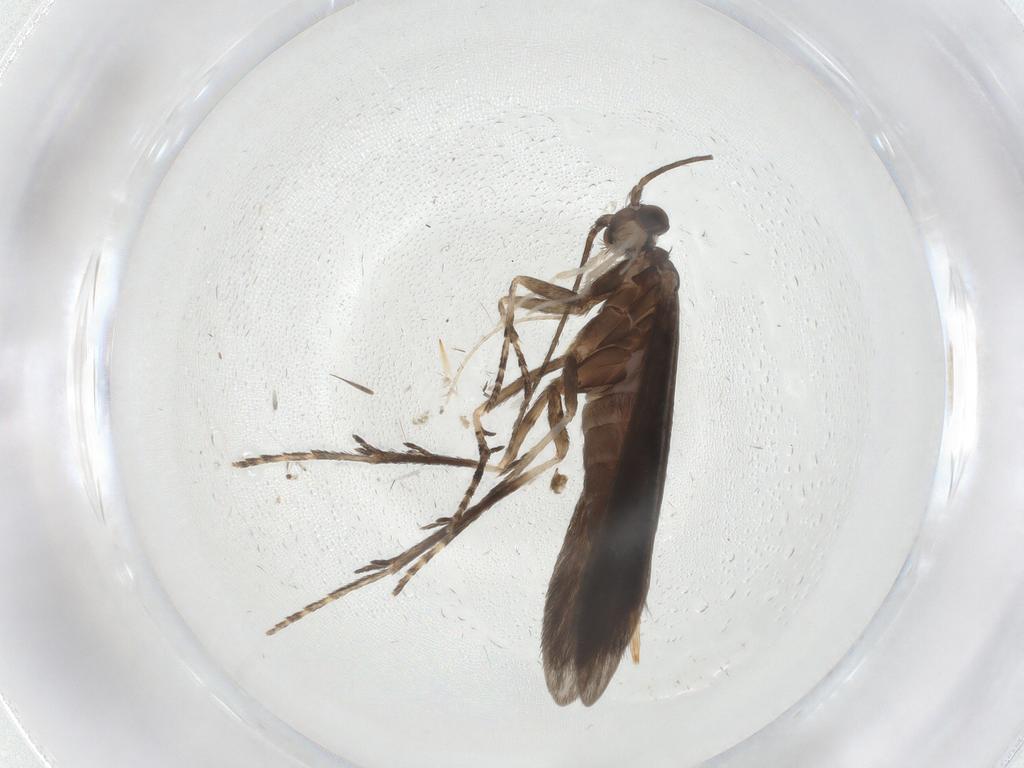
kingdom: Animalia
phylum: Arthropoda
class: Insecta
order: Trichoptera
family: Xiphocentronidae
